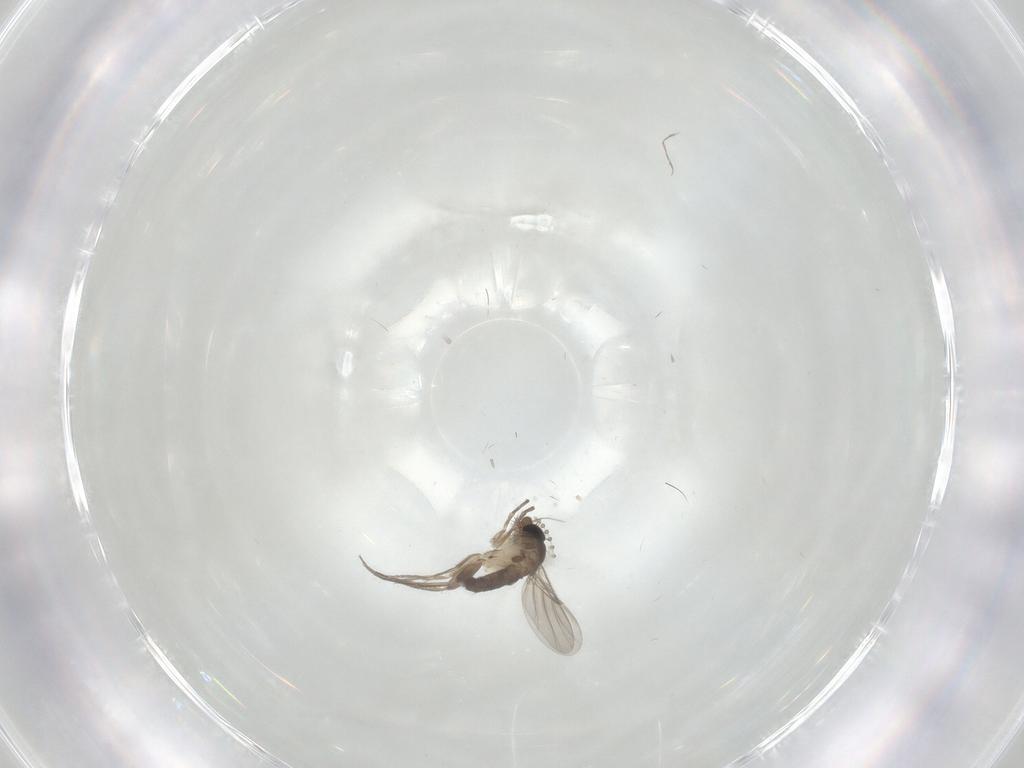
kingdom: Animalia
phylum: Arthropoda
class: Insecta
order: Diptera
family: Phoridae
